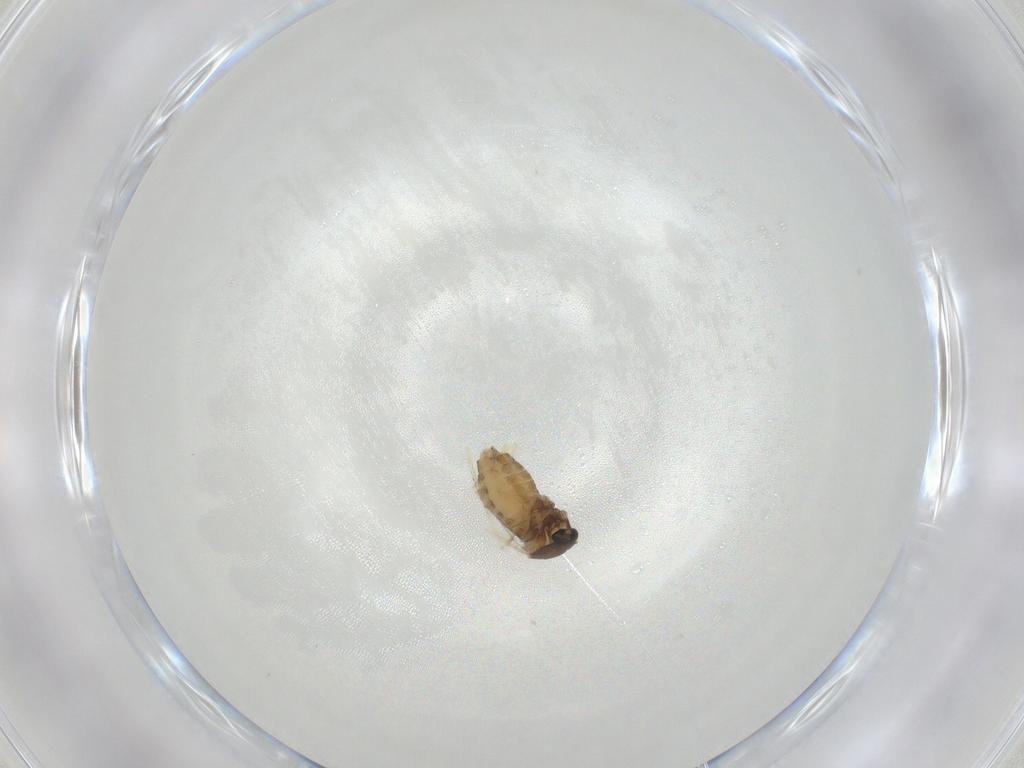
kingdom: Animalia
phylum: Arthropoda
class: Insecta
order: Diptera
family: Cecidomyiidae
